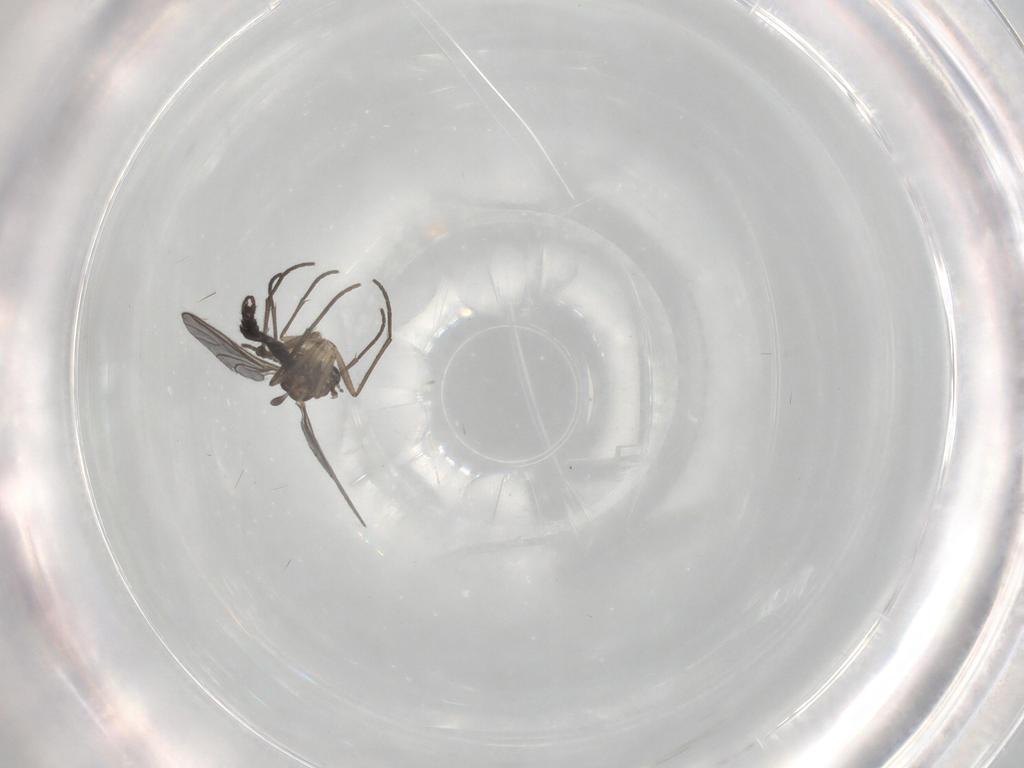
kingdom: Animalia
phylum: Arthropoda
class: Insecta
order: Diptera
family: Sciaridae
